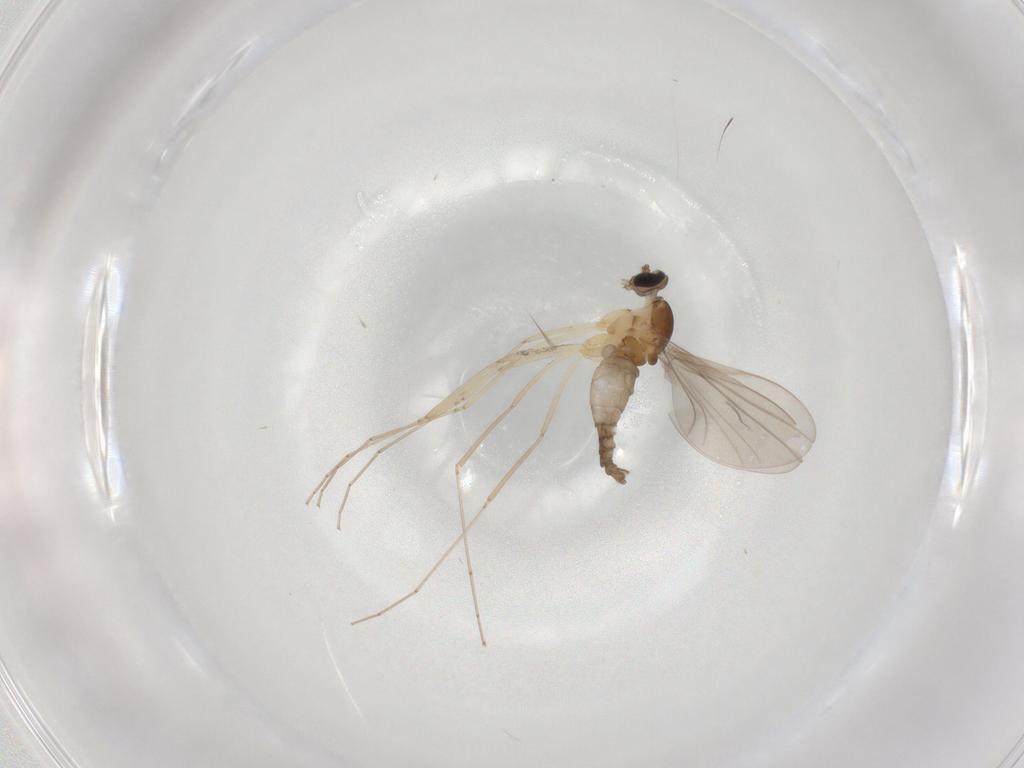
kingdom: Animalia
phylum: Arthropoda
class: Insecta
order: Diptera
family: Cecidomyiidae
